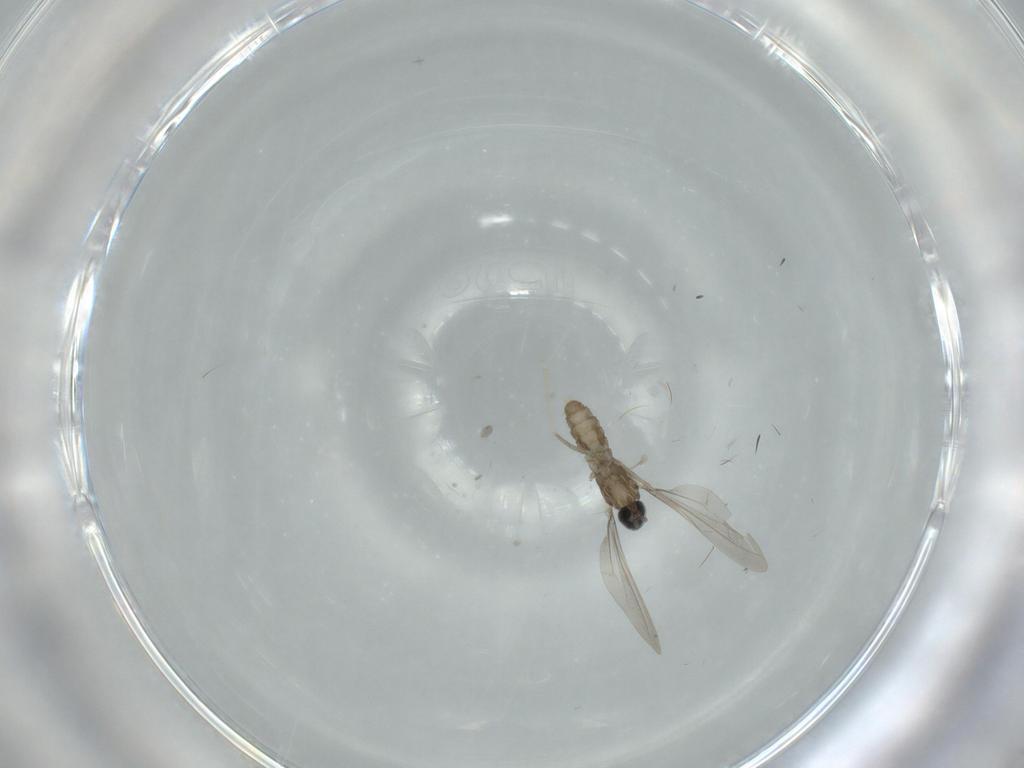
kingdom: Animalia
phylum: Arthropoda
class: Insecta
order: Diptera
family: Cecidomyiidae
